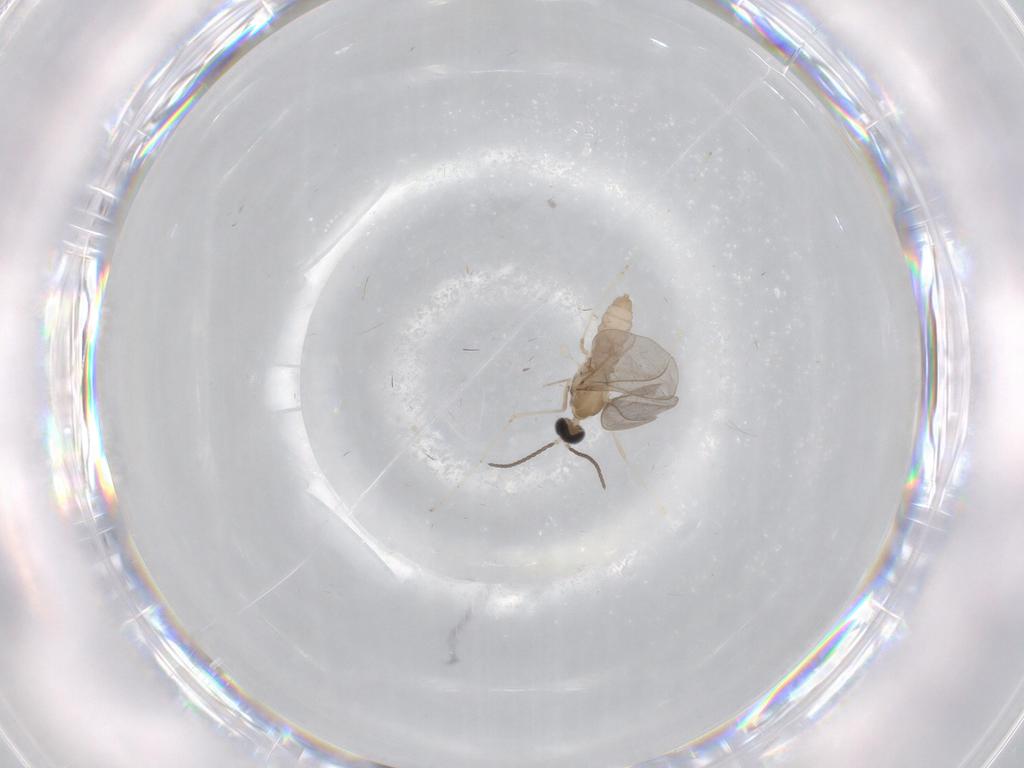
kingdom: Animalia
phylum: Arthropoda
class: Insecta
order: Diptera
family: Cecidomyiidae
